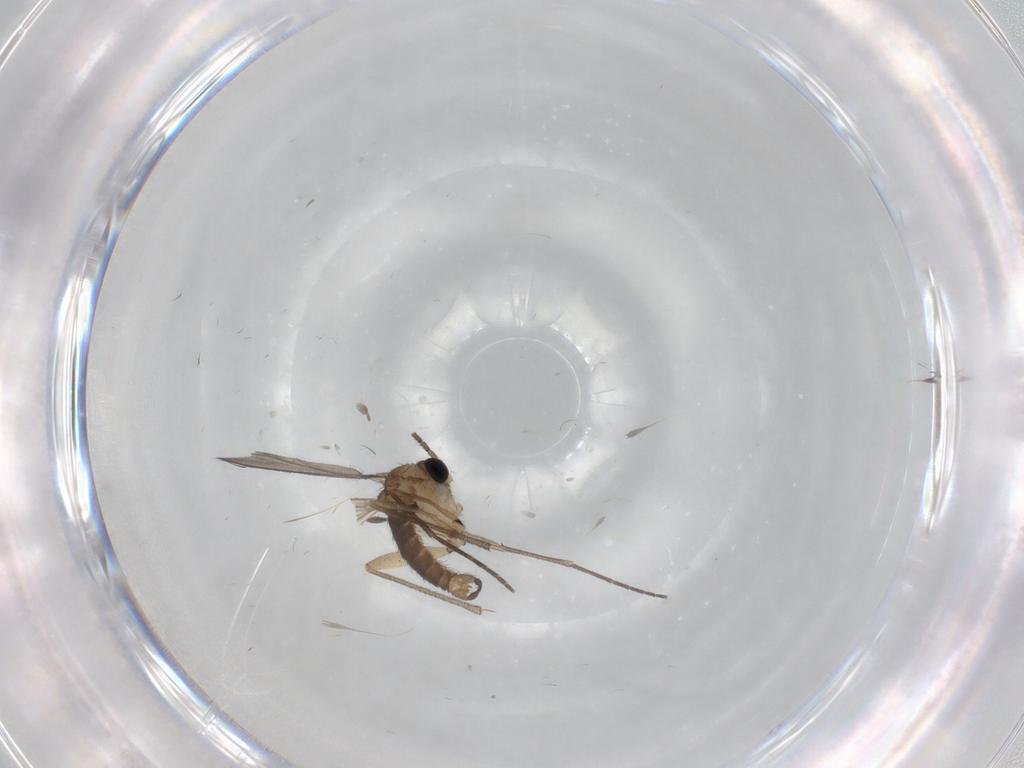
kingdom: Animalia
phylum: Arthropoda
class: Insecta
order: Diptera
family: Sciaridae
